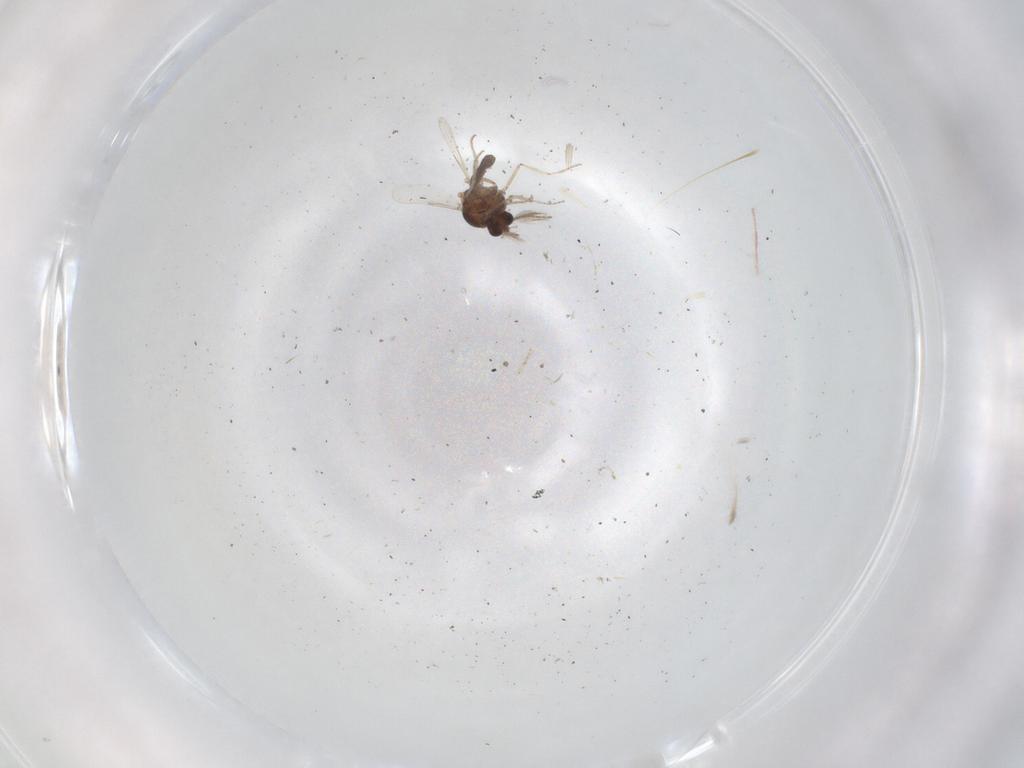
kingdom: Animalia
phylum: Arthropoda
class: Insecta
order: Diptera
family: Ceratopogonidae
